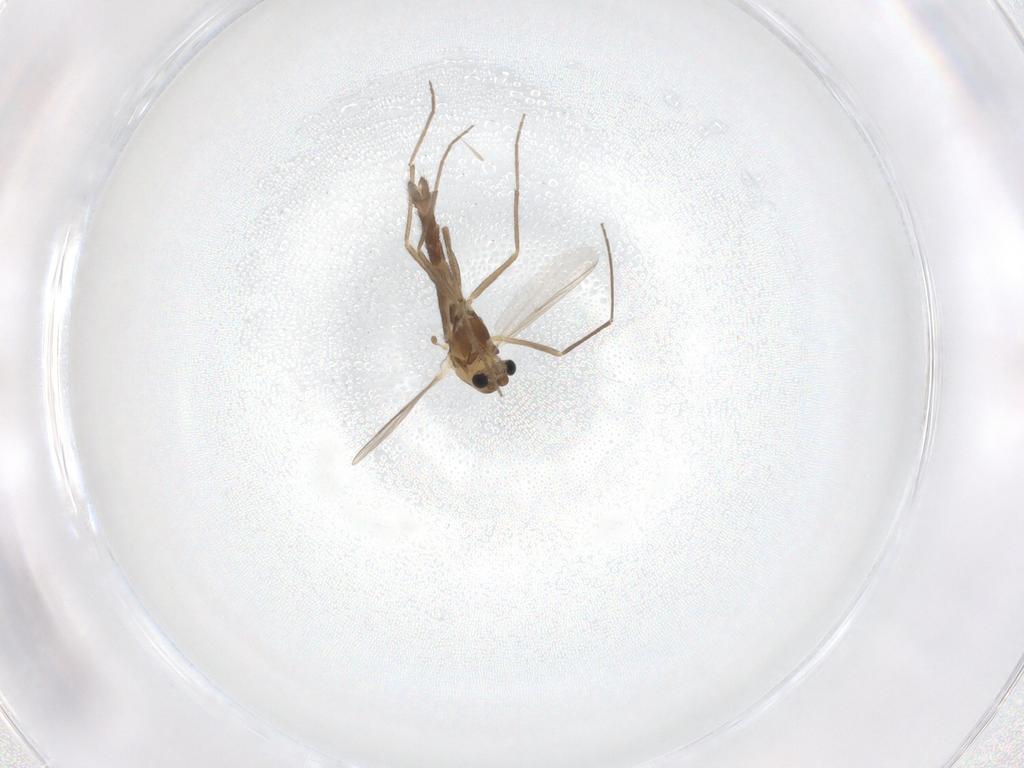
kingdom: Animalia
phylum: Arthropoda
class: Insecta
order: Diptera
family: Chironomidae
